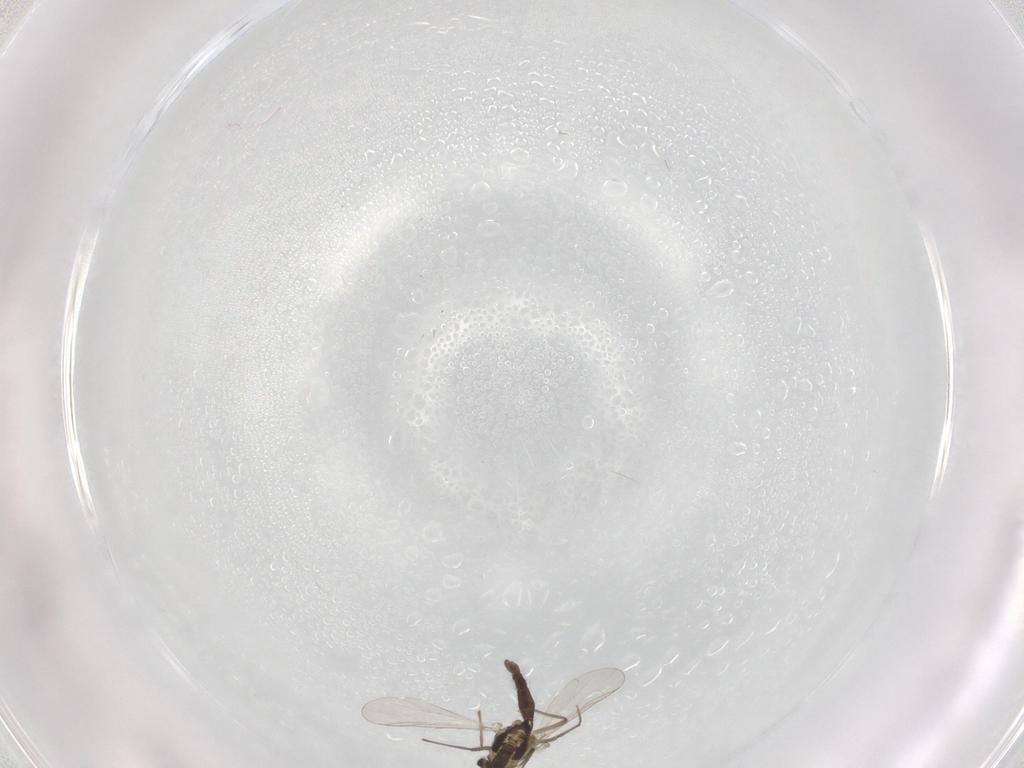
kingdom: Animalia
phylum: Arthropoda
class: Insecta
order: Diptera
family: Chironomidae
